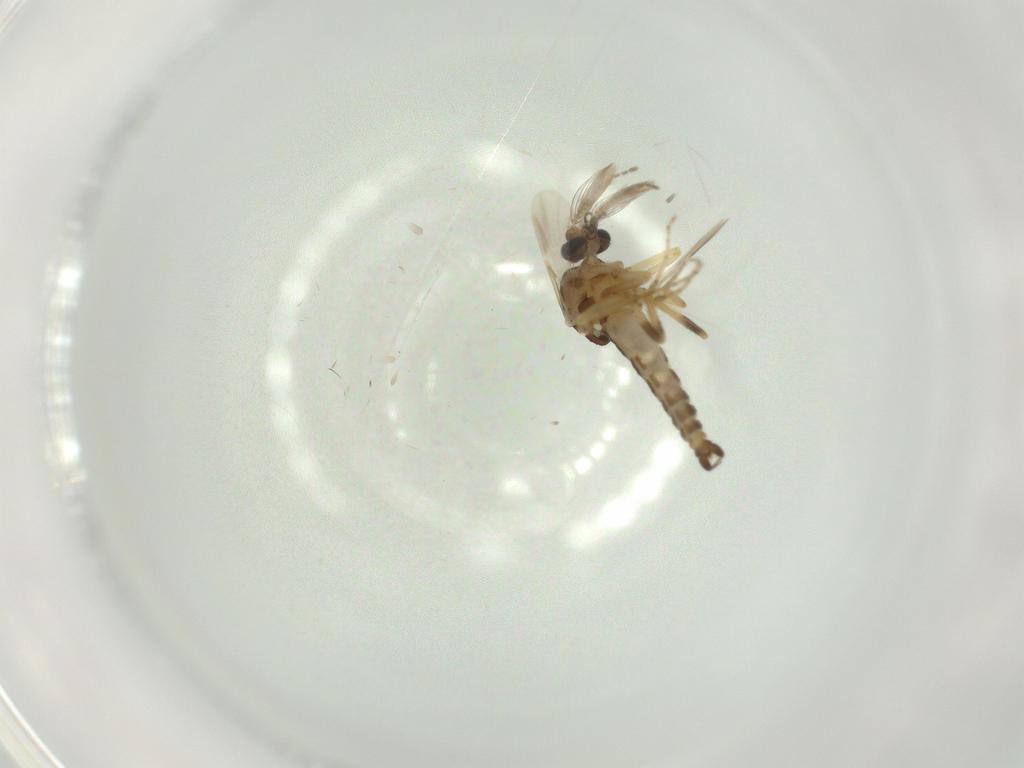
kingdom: Animalia
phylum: Arthropoda
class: Insecta
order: Diptera
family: Ceratopogonidae
